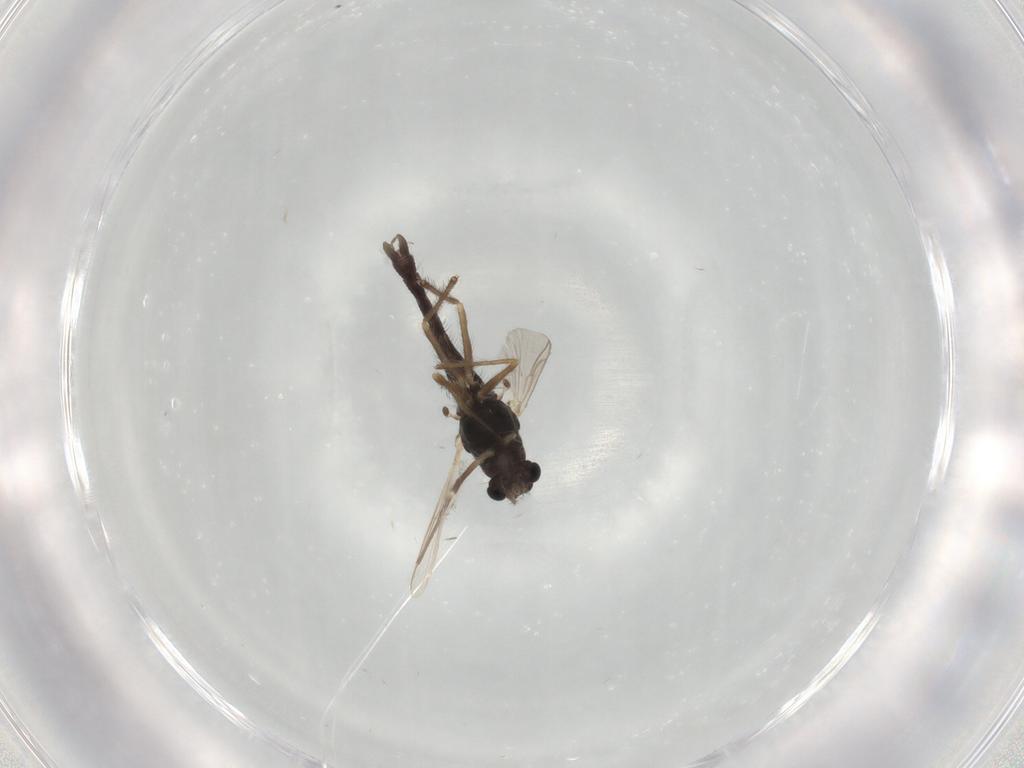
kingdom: Animalia
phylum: Arthropoda
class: Insecta
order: Diptera
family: Chironomidae
